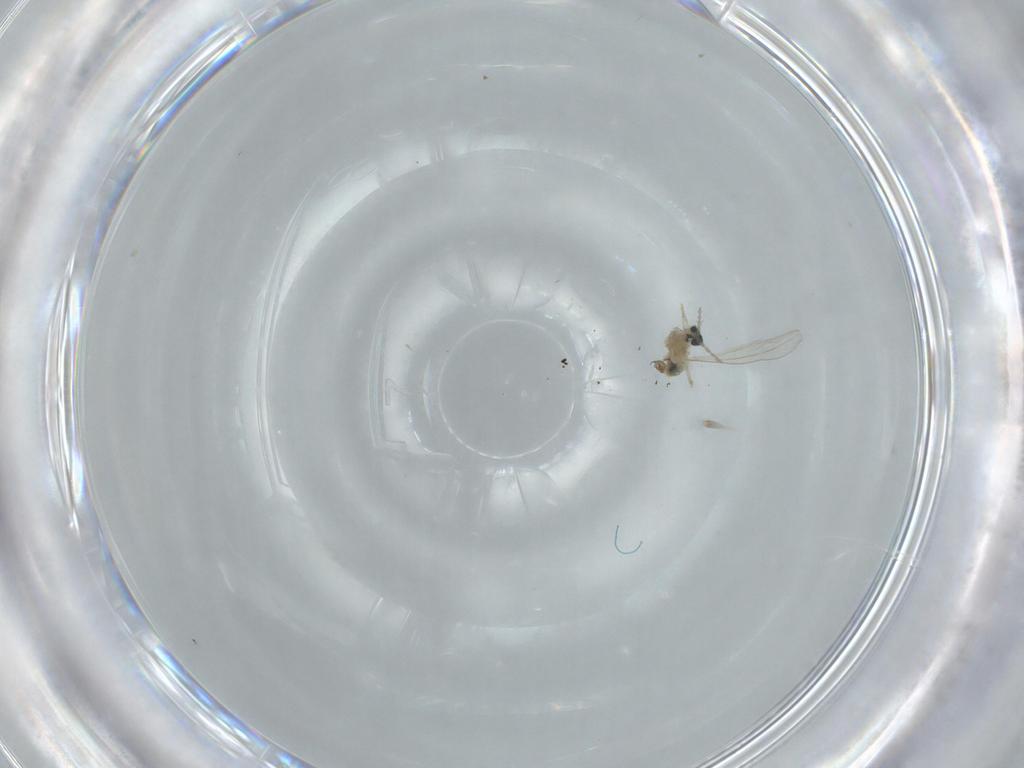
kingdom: Animalia
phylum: Arthropoda
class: Insecta
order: Diptera
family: Cecidomyiidae
